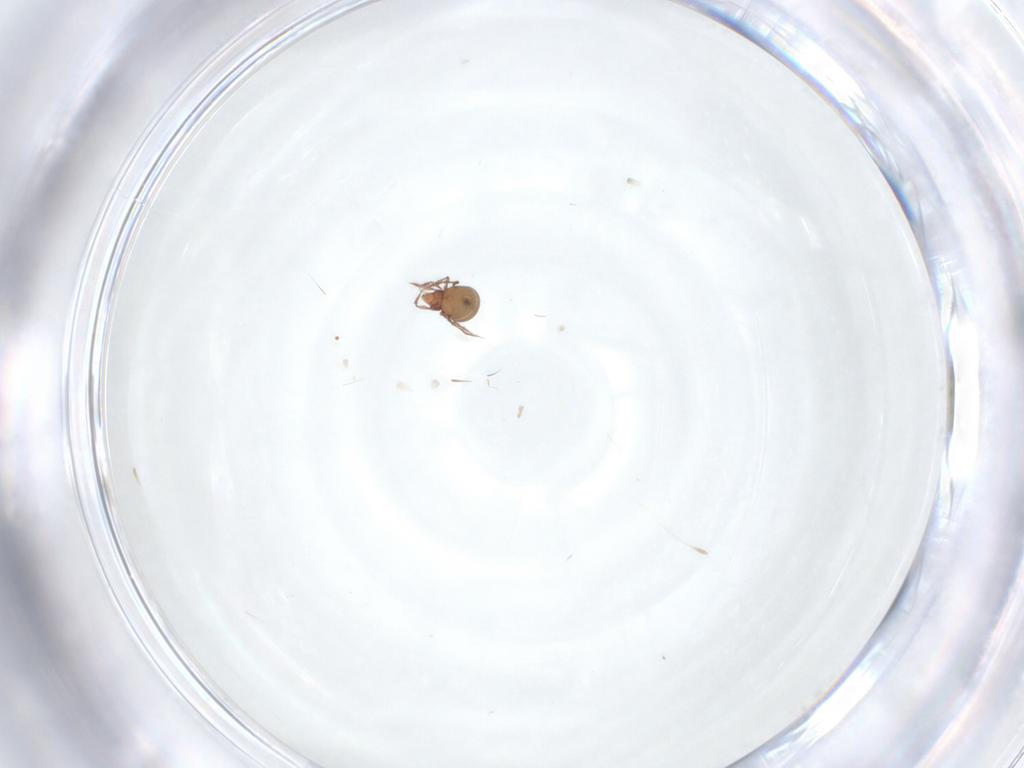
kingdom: Animalia
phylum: Arthropoda
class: Arachnida
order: Sarcoptiformes
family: Oppiidae
